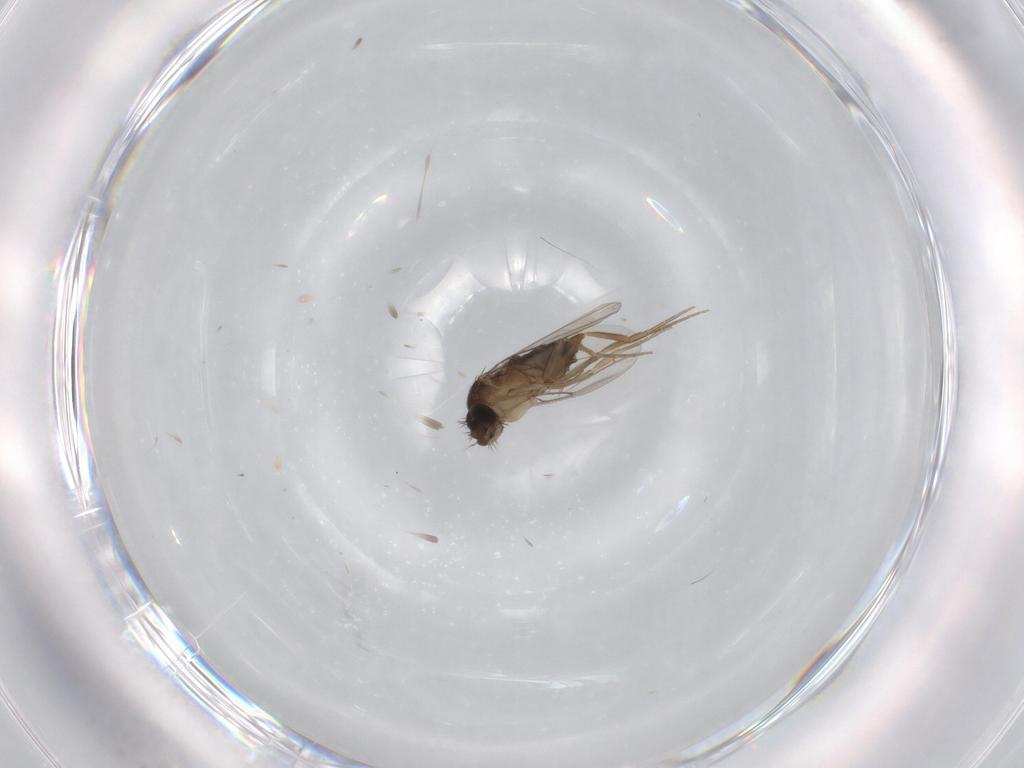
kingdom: Animalia
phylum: Arthropoda
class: Insecta
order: Diptera
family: Phoridae
